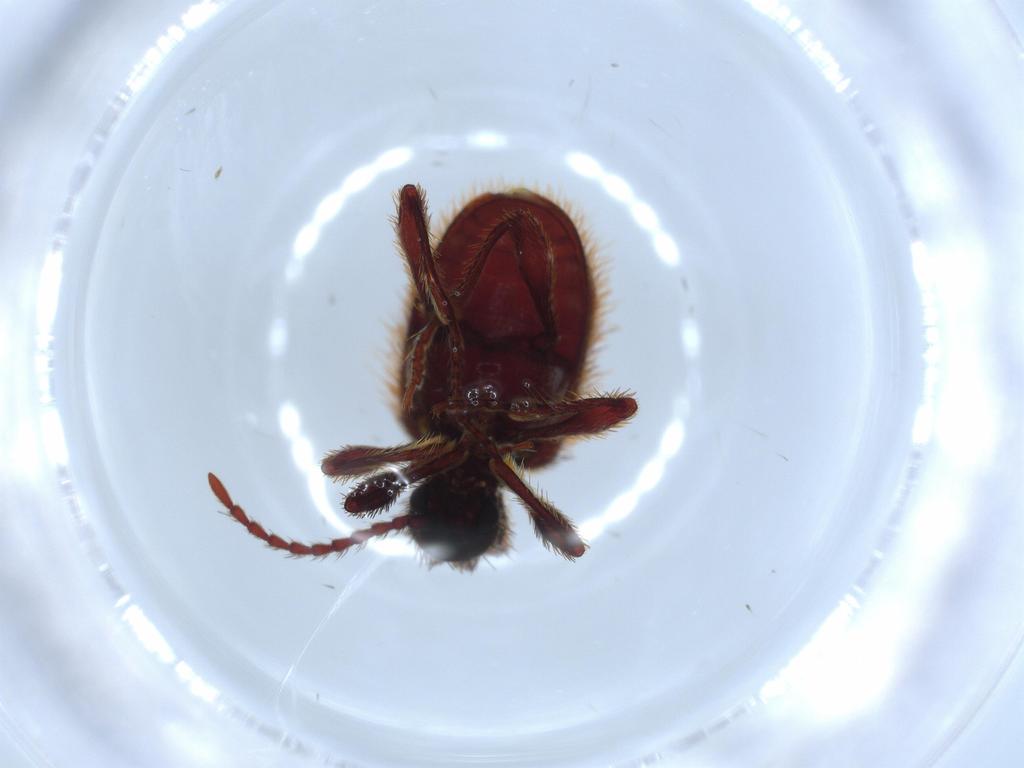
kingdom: Animalia
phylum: Arthropoda
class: Insecta
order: Coleoptera
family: Ptinidae
